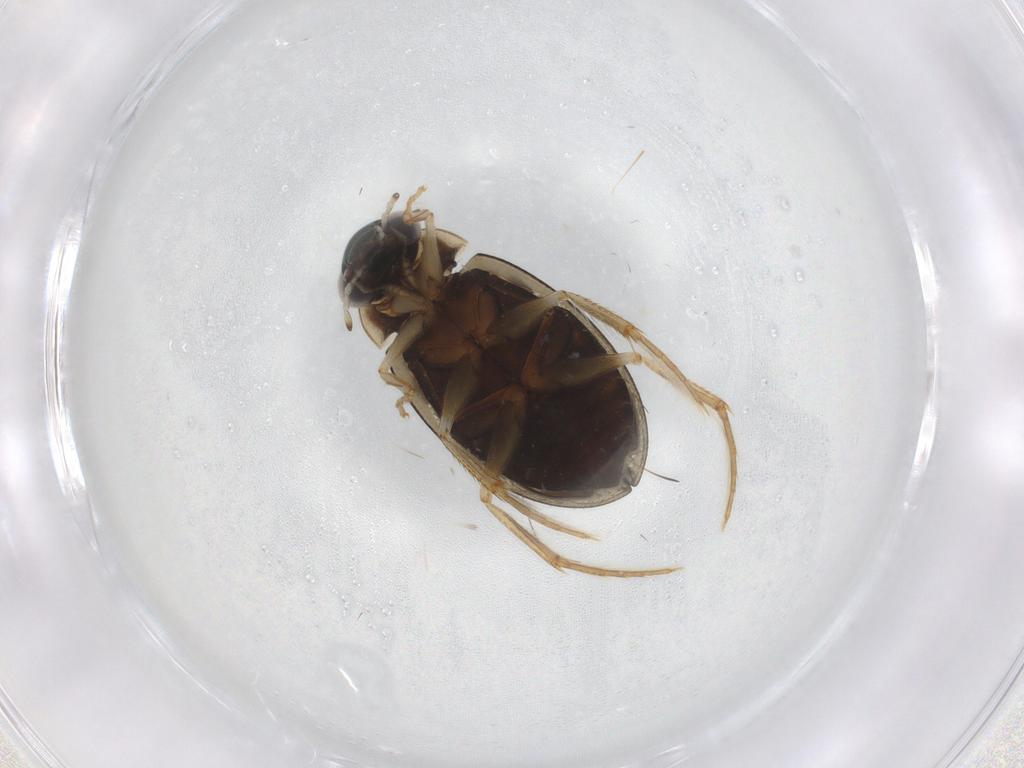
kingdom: Animalia
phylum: Arthropoda
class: Insecta
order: Coleoptera
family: Hydrophilidae
